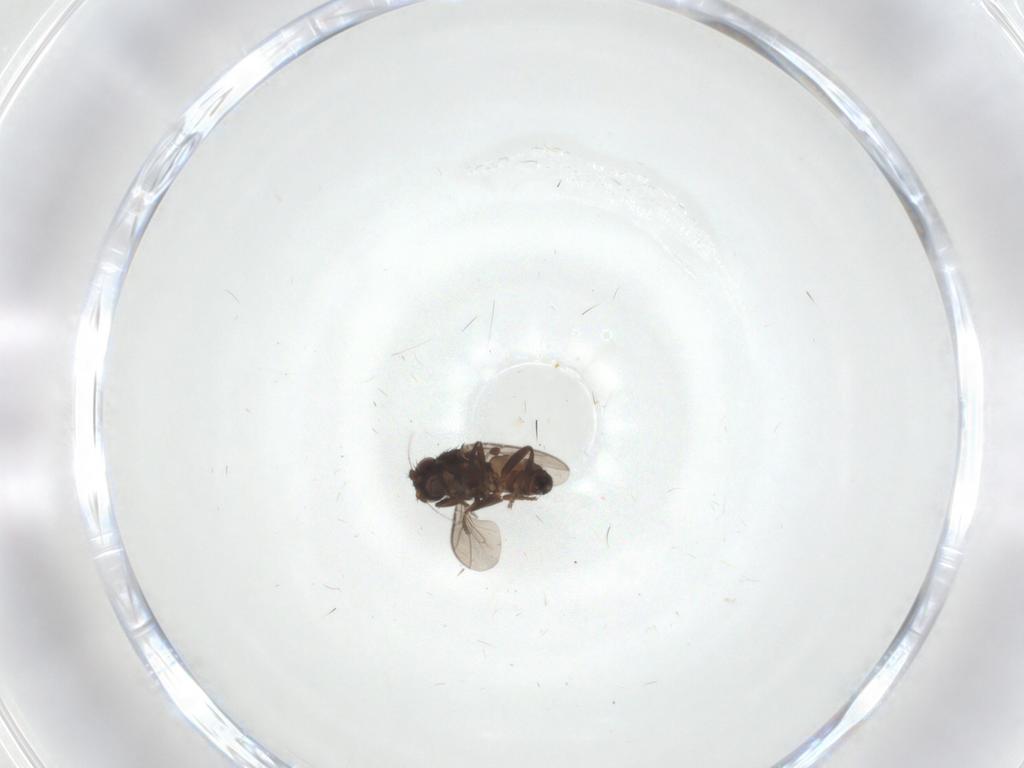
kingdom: Animalia
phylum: Arthropoda
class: Insecta
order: Diptera
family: Sphaeroceridae
